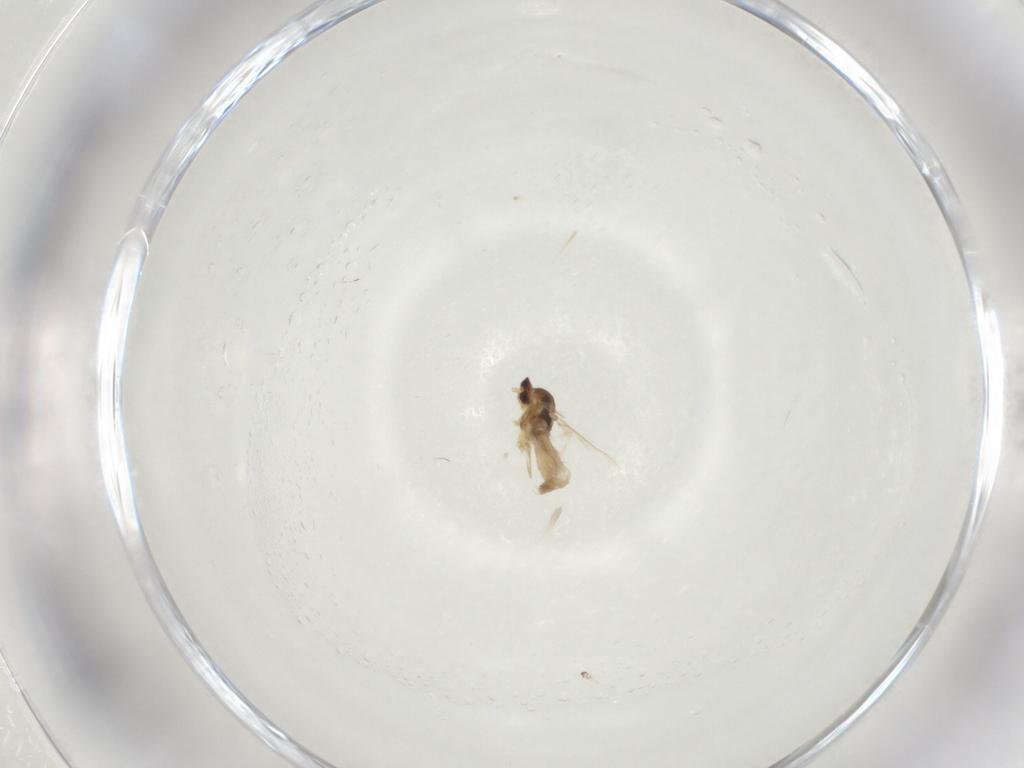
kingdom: Animalia
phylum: Arthropoda
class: Insecta
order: Diptera
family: Cecidomyiidae
